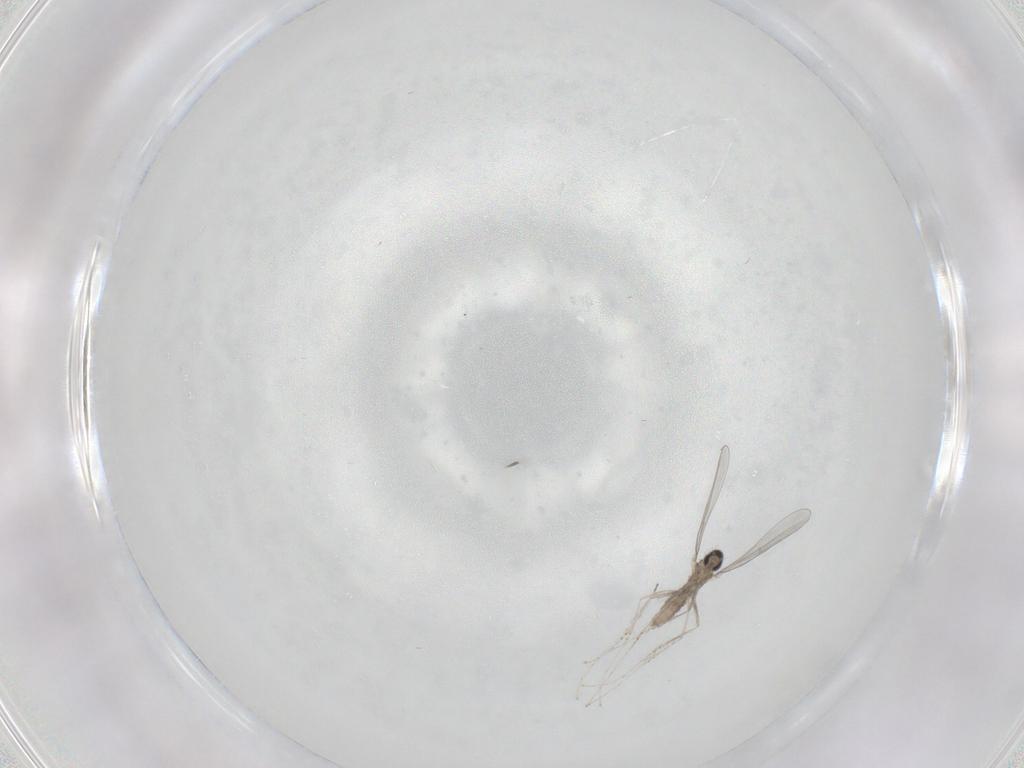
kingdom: Animalia
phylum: Arthropoda
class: Insecta
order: Diptera
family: Cecidomyiidae
